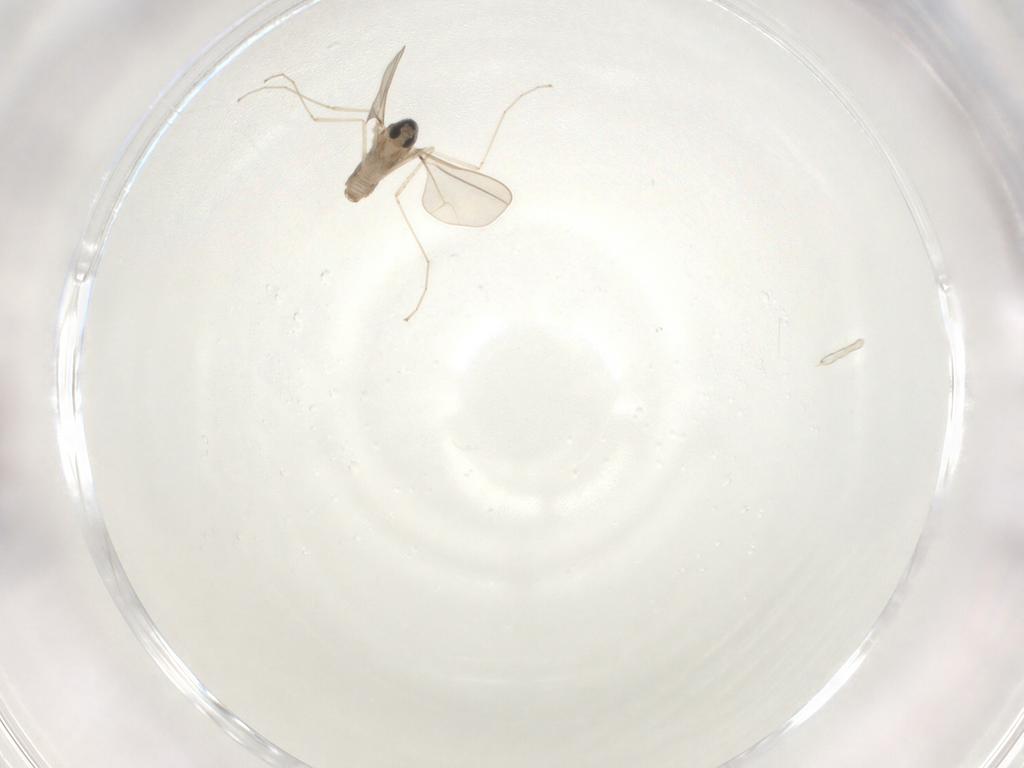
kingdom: Animalia
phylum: Arthropoda
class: Insecta
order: Diptera
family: Cecidomyiidae
